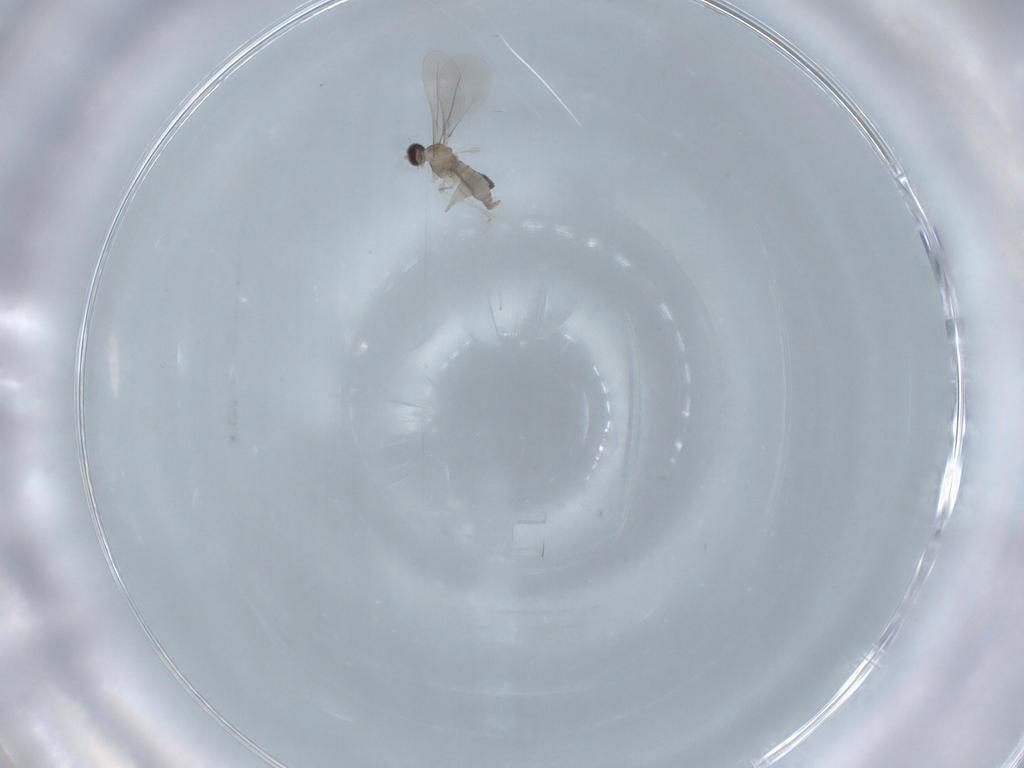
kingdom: Animalia
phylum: Arthropoda
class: Insecta
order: Diptera
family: Cecidomyiidae
